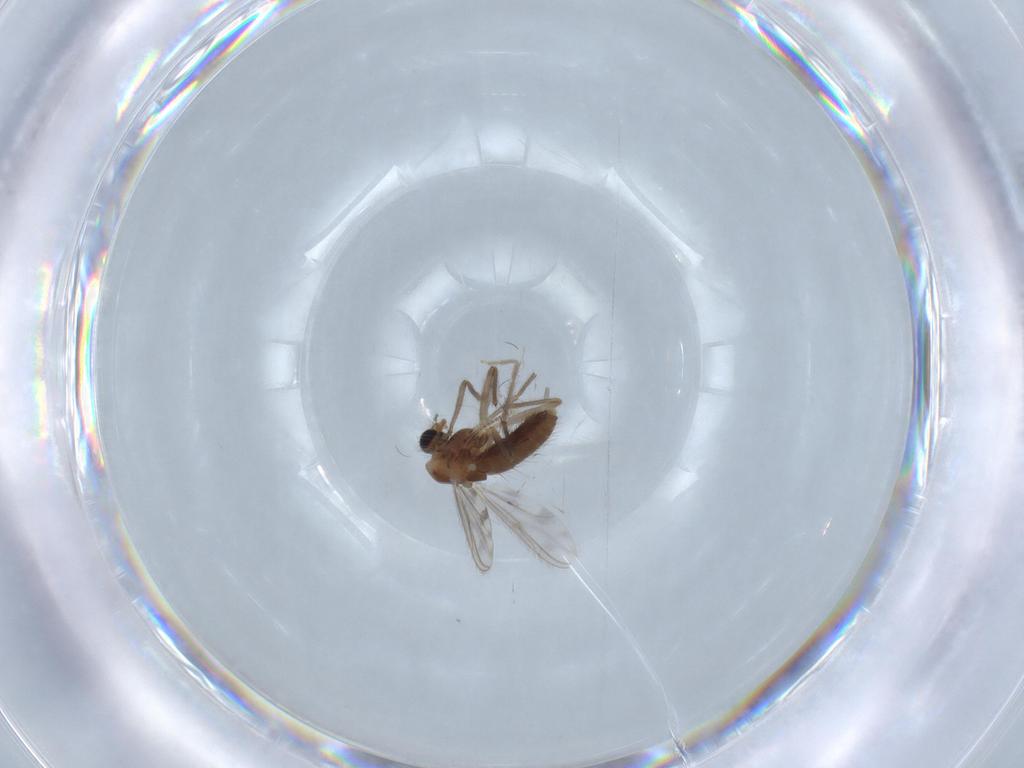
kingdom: Animalia
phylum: Arthropoda
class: Insecta
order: Diptera
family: Chironomidae
